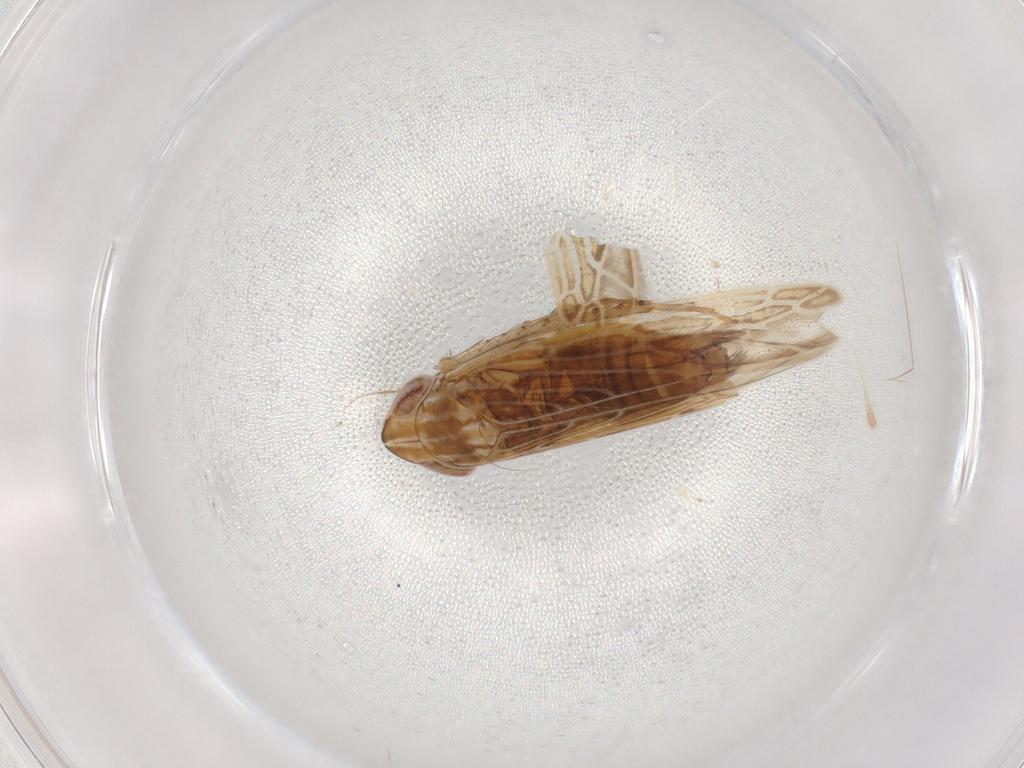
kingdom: Animalia
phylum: Arthropoda
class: Insecta
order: Hemiptera
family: Cicadellidae
